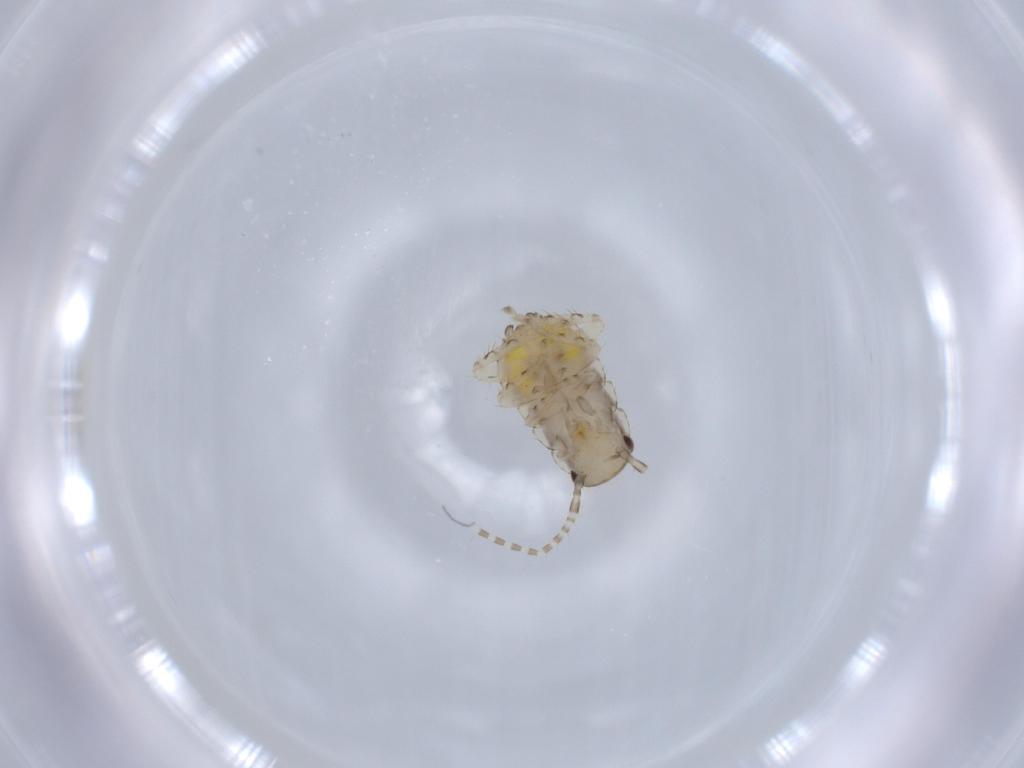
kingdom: Animalia
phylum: Arthropoda
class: Insecta
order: Blattodea
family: Ectobiidae
